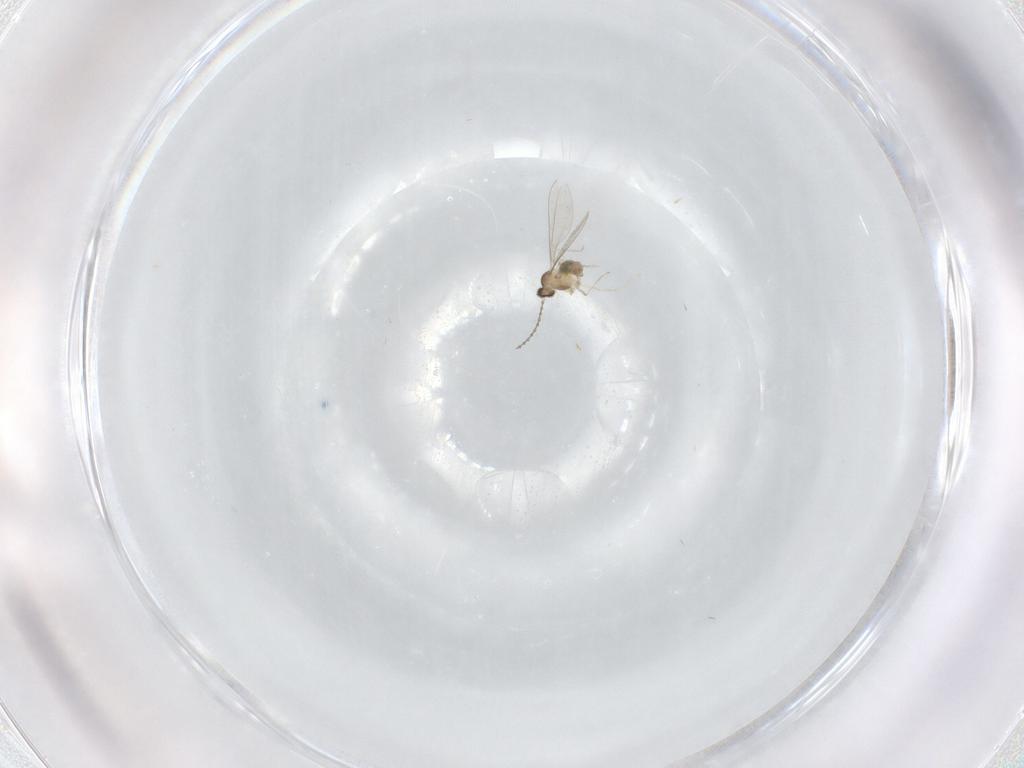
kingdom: Animalia
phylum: Arthropoda
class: Insecta
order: Diptera
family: Cecidomyiidae
